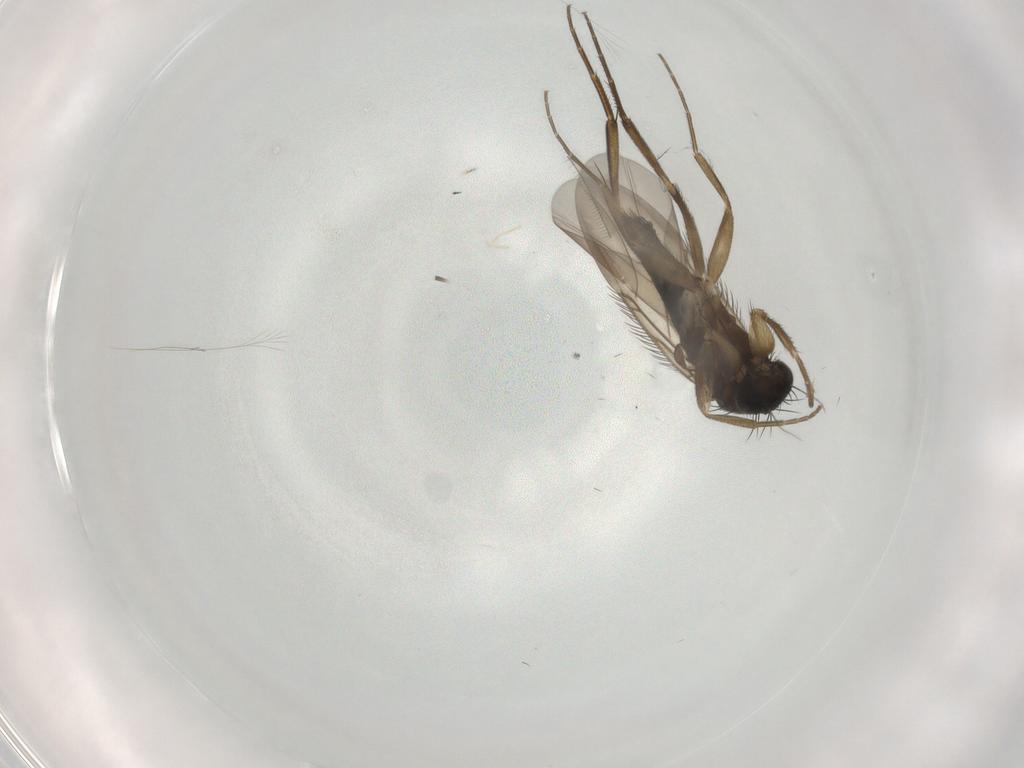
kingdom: Animalia
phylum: Arthropoda
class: Insecta
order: Diptera
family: Phoridae
